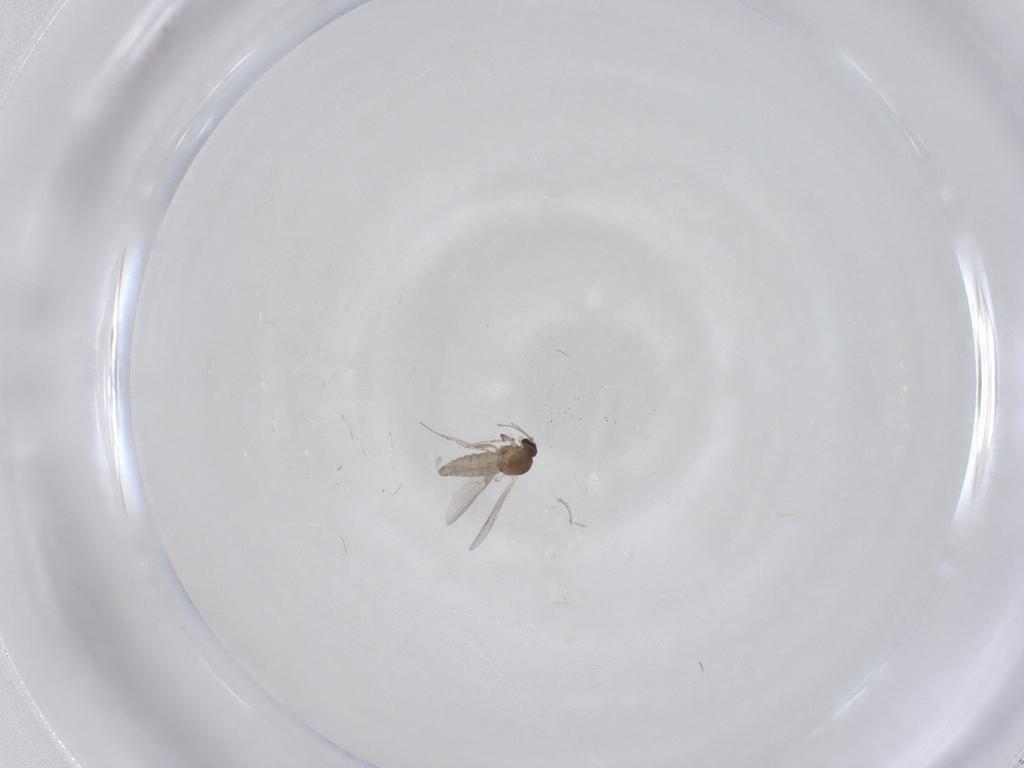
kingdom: Animalia
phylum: Arthropoda
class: Insecta
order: Diptera
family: Cecidomyiidae
